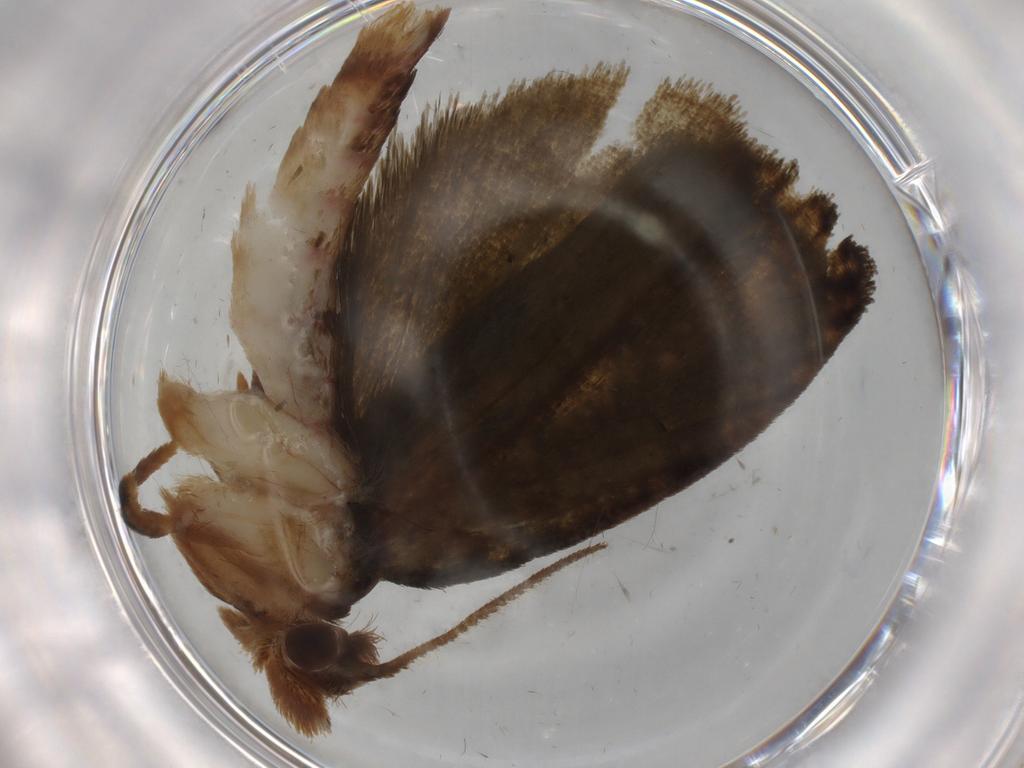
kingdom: Animalia
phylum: Arthropoda
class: Insecta
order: Lepidoptera
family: Geometridae
